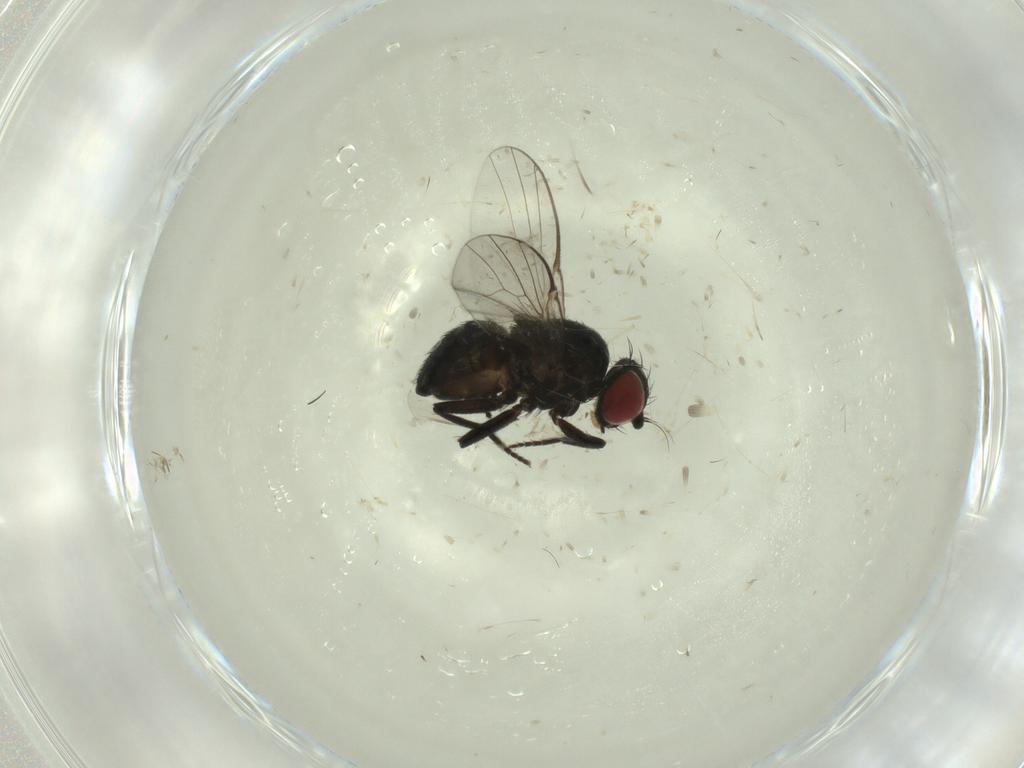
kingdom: Animalia
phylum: Arthropoda
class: Insecta
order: Diptera
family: Agromyzidae
